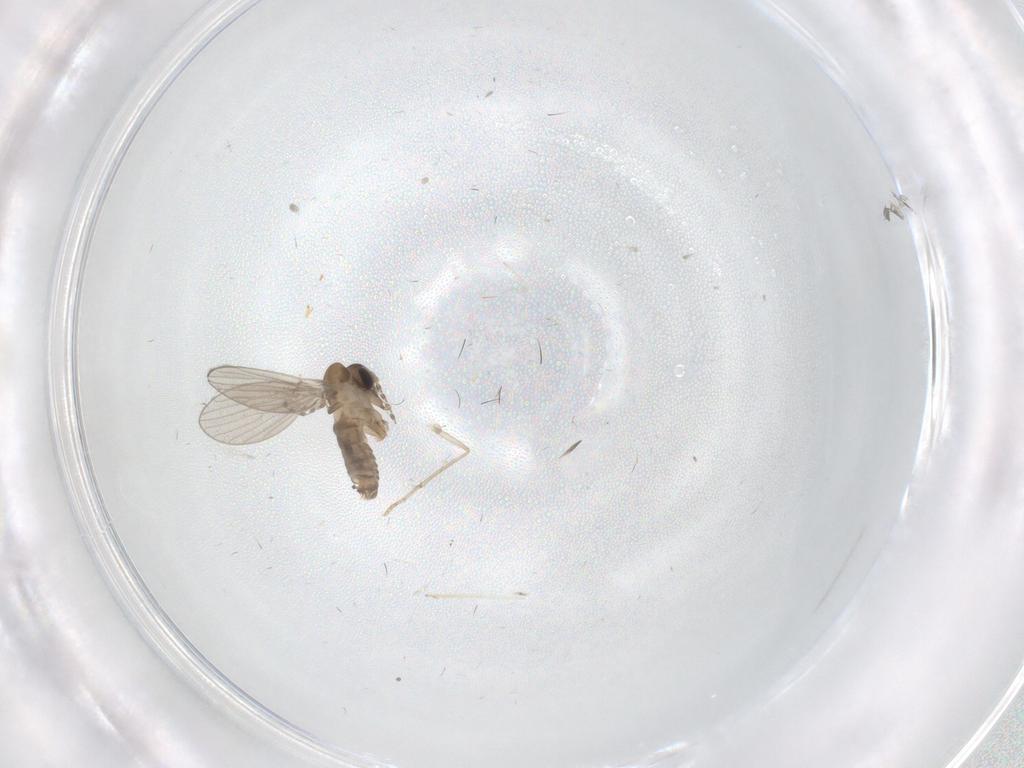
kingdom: Animalia
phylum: Arthropoda
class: Insecta
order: Diptera
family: Chironomidae
